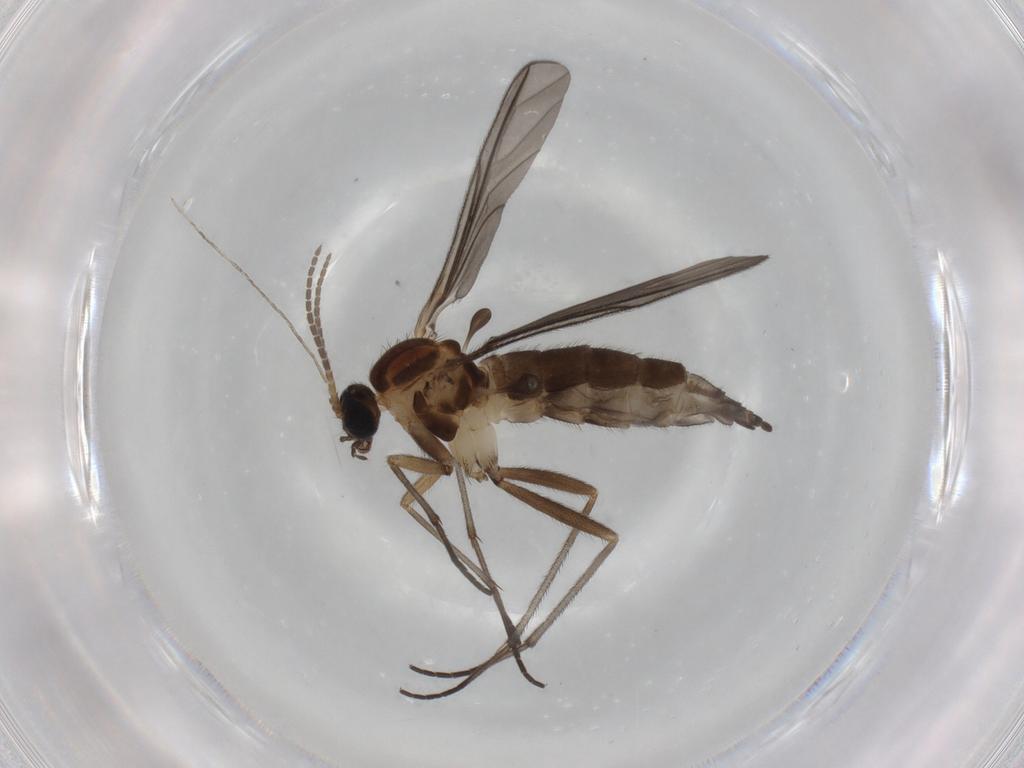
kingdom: Animalia
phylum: Arthropoda
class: Insecta
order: Diptera
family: Sciaridae
